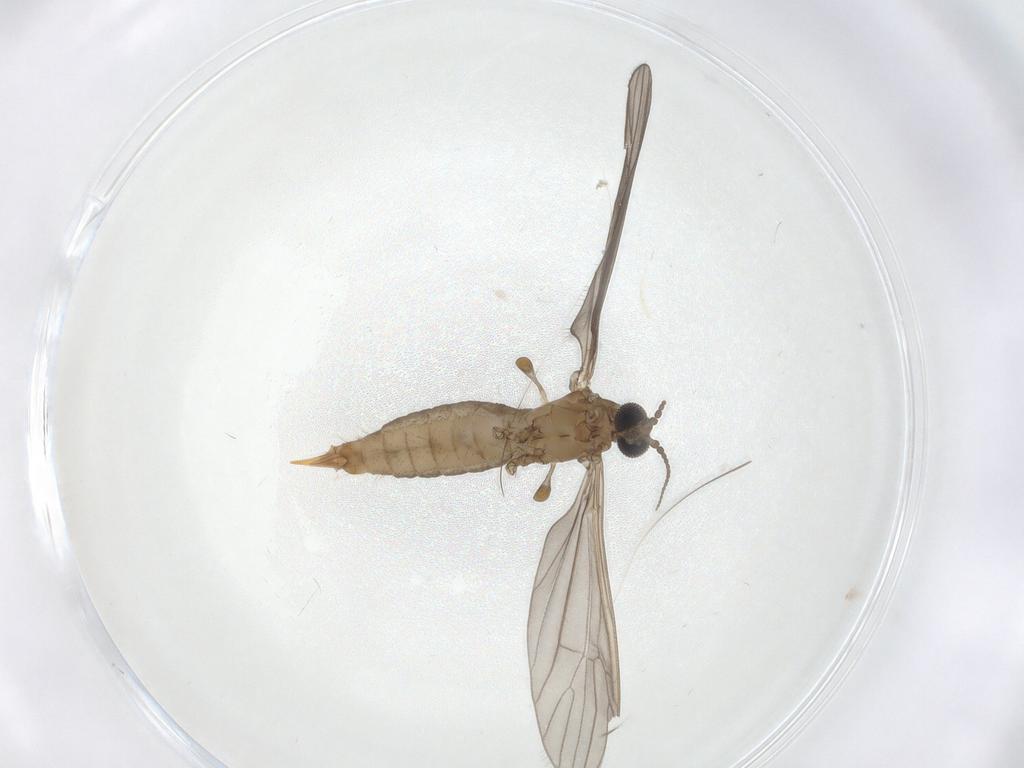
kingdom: Animalia
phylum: Arthropoda
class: Insecta
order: Diptera
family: Limoniidae
